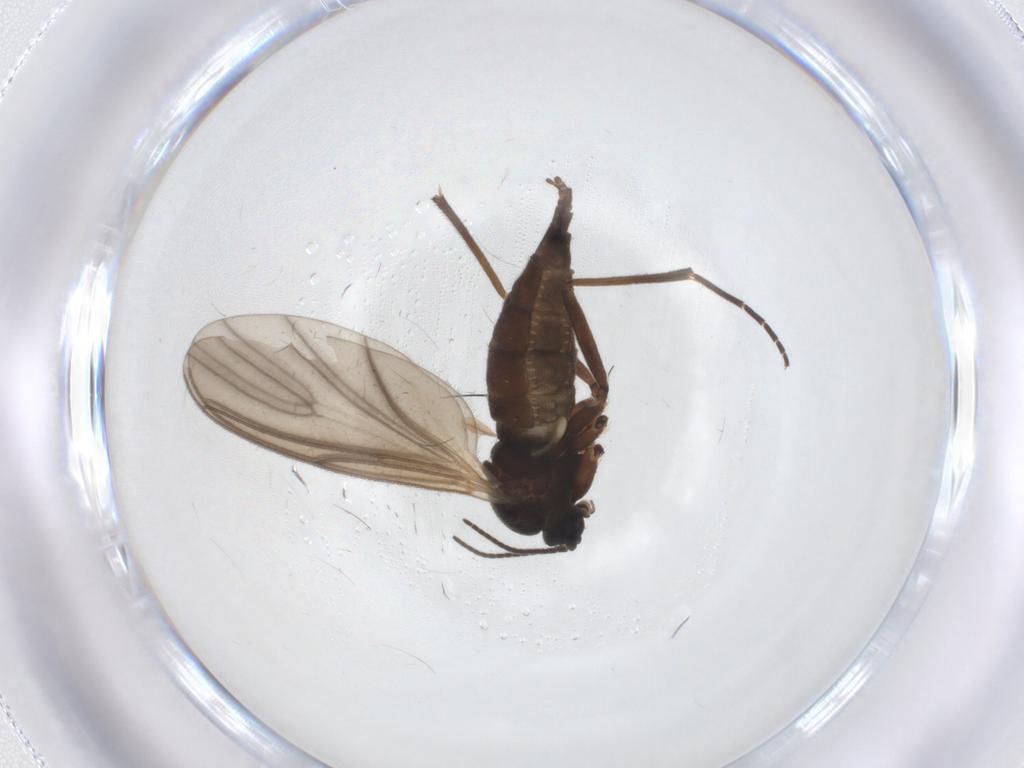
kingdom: Animalia
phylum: Arthropoda
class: Insecta
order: Diptera
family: Sciaridae
